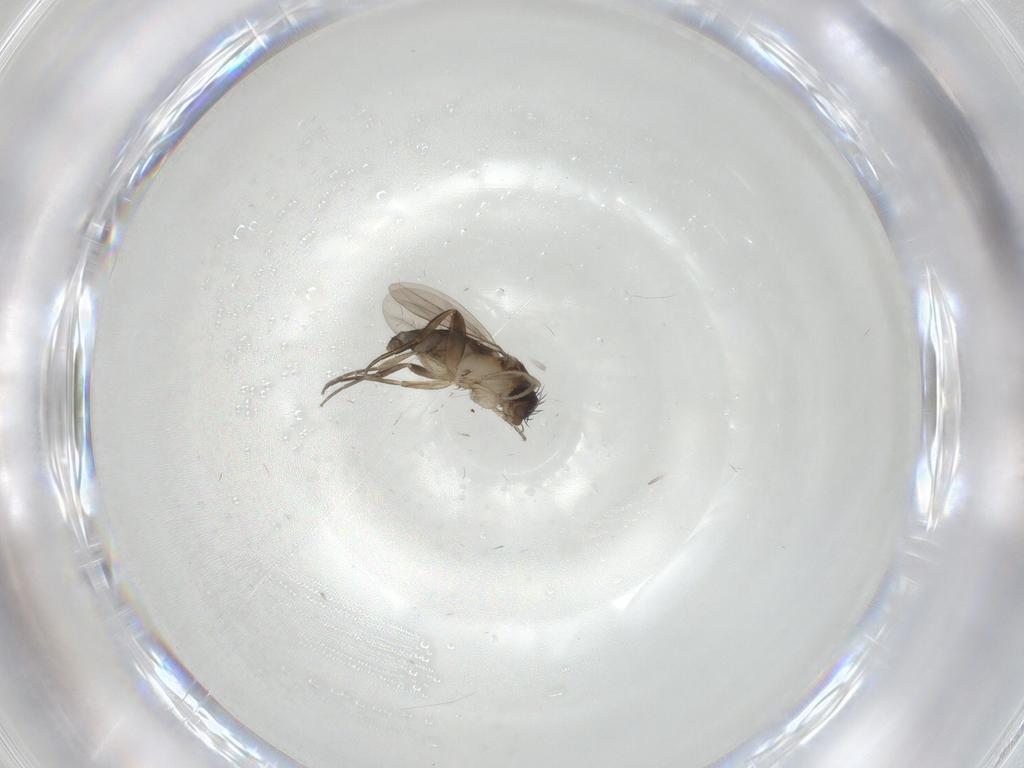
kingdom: Animalia
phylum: Arthropoda
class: Insecta
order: Diptera
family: Phoridae
